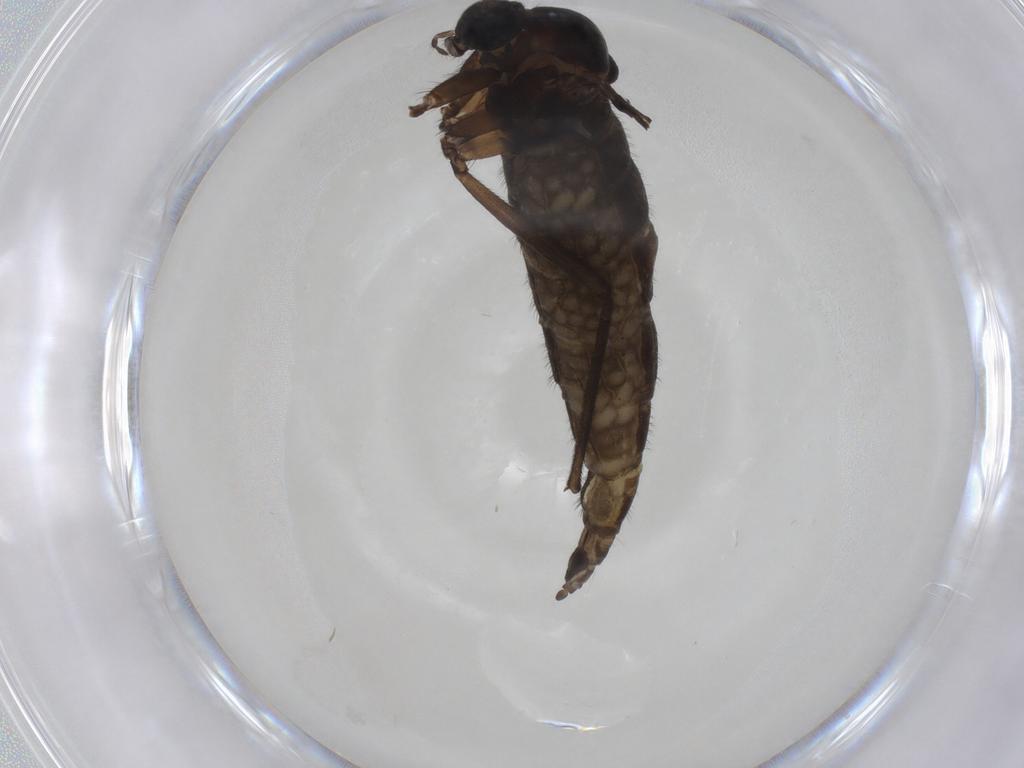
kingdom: Animalia
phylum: Arthropoda
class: Insecta
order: Diptera
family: Sciaridae
